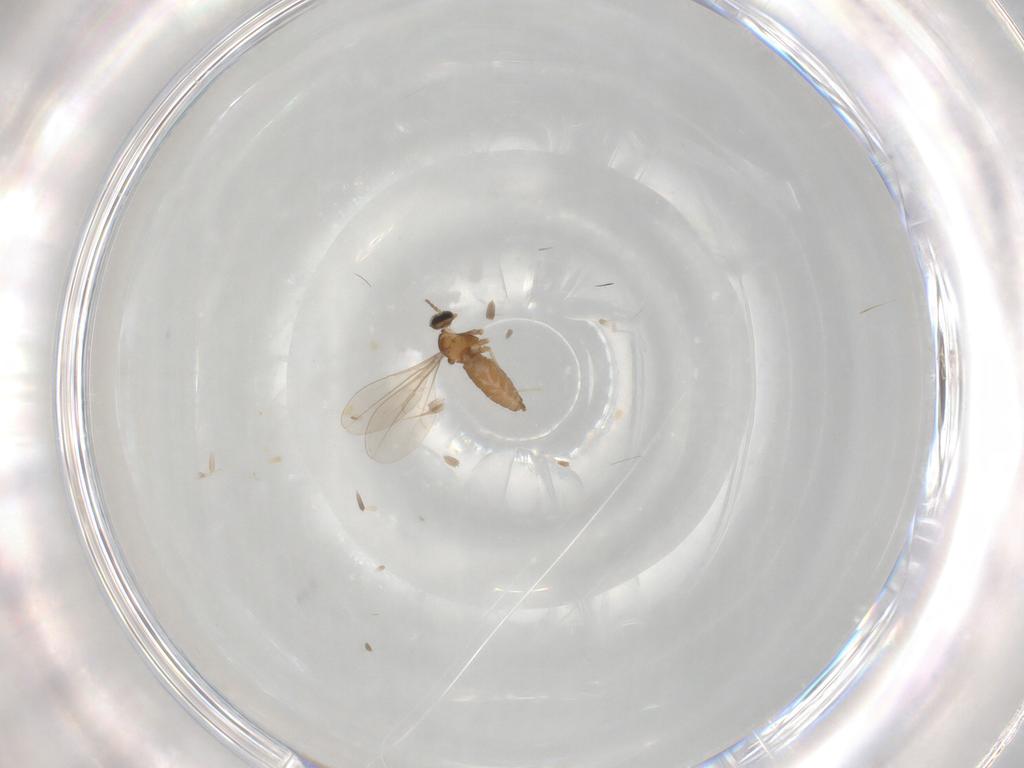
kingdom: Animalia
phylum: Arthropoda
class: Insecta
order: Diptera
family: Cecidomyiidae
